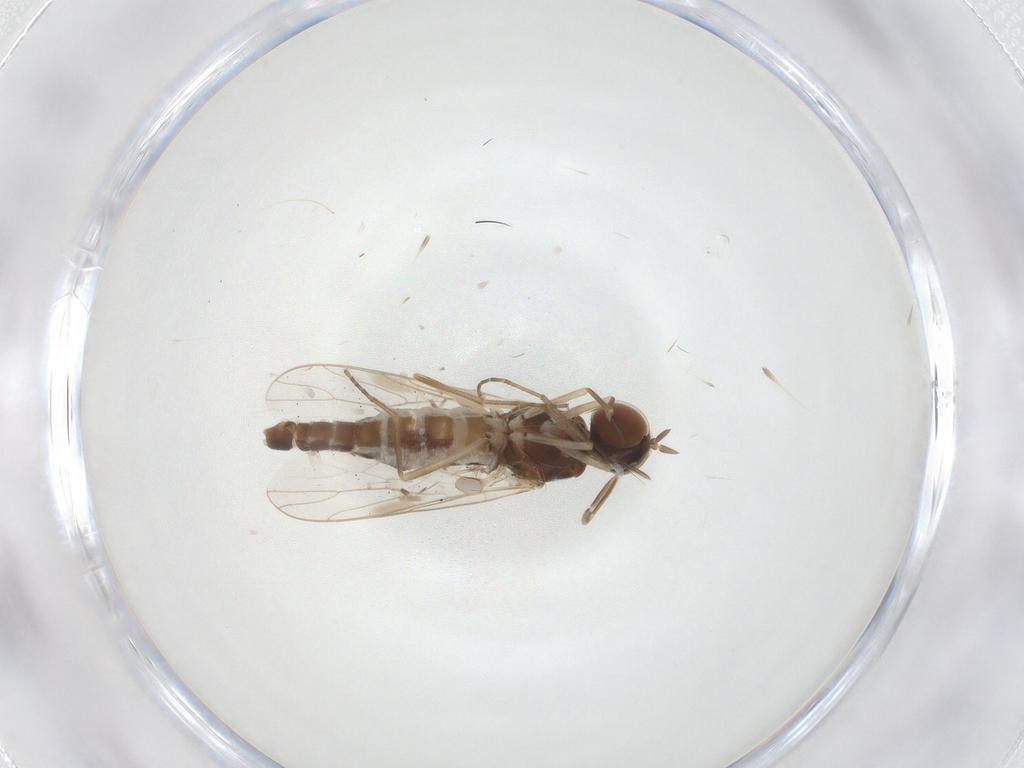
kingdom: Animalia
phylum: Arthropoda
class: Insecta
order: Diptera
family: Scenopinidae
